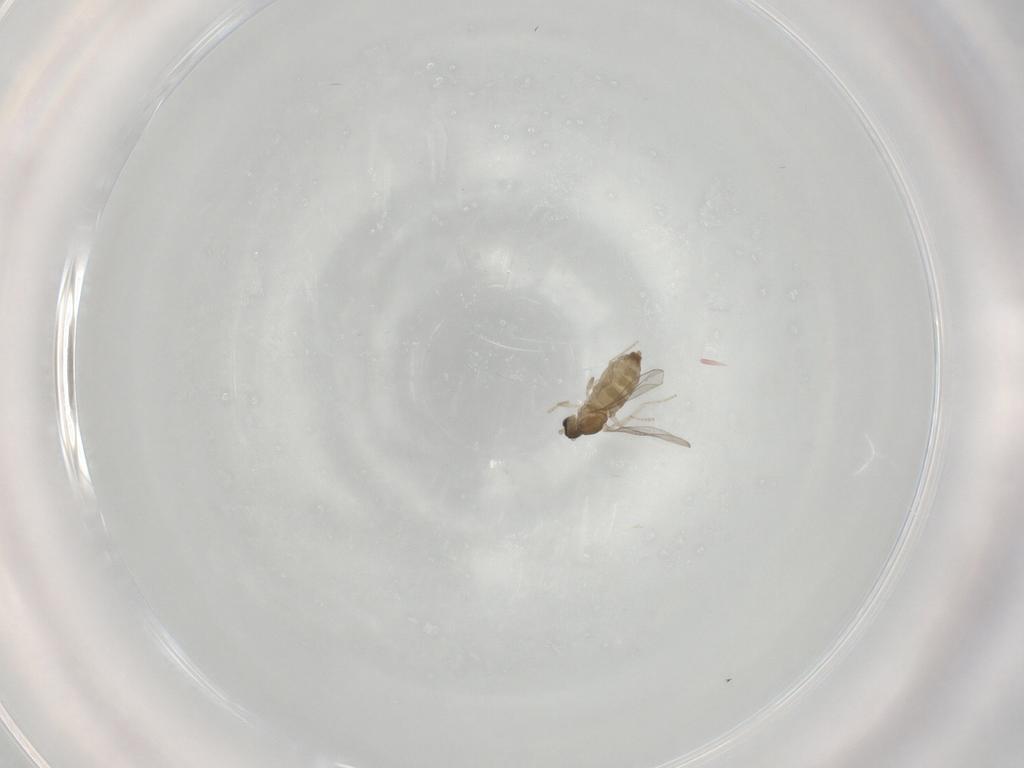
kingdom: Animalia
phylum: Arthropoda
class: Insecta
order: Diptera
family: Cecidomyiidae
